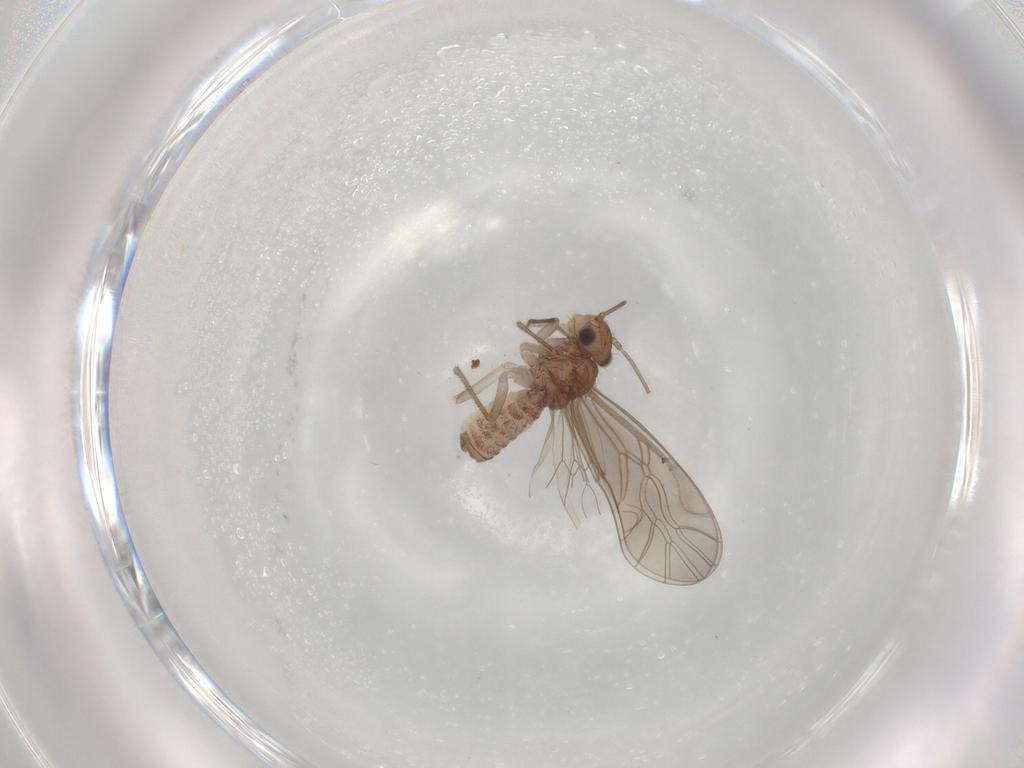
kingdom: Animalia
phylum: Arthropoda
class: Insecta
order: Psocodea
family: Caeciliusidae
